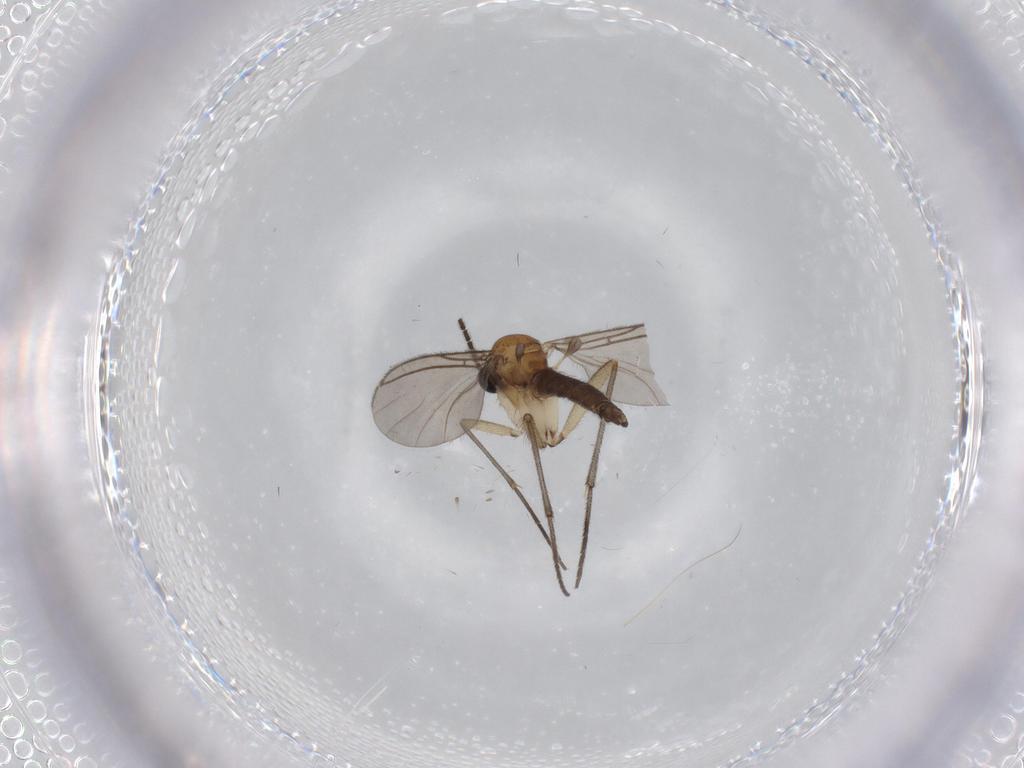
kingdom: Animalia
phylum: Arthropoda
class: Insecta
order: Diptera
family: Sciaridae
